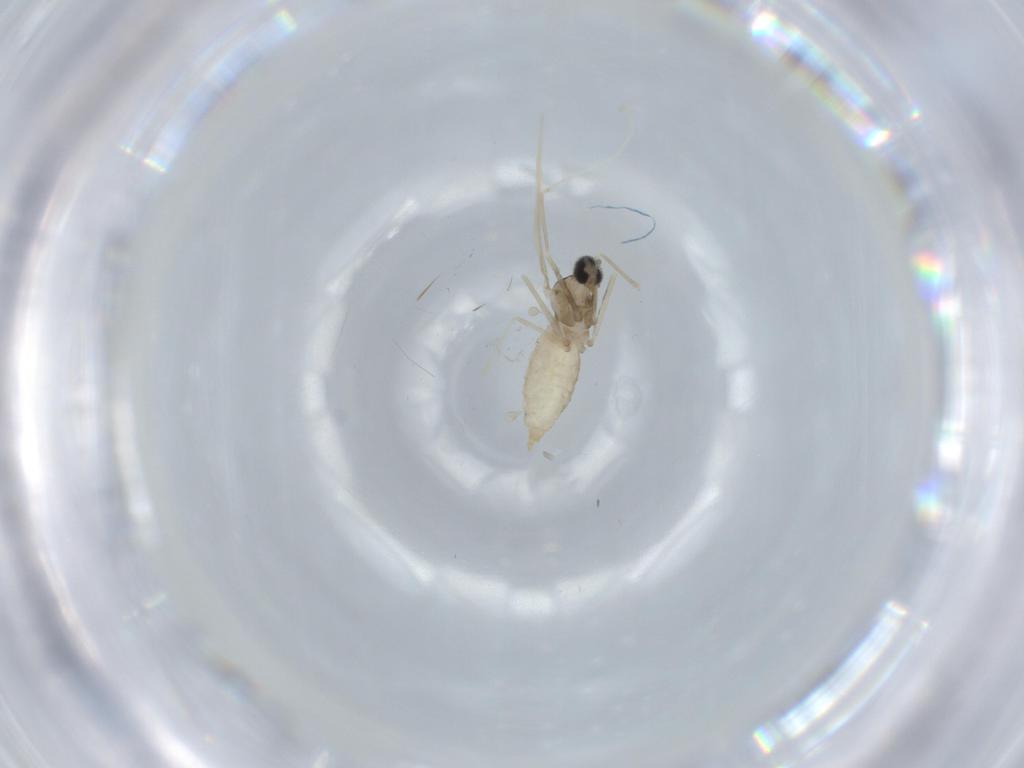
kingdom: Animalia
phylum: Arthropoda
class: Insecta
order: Diptera
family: Cecidomyiidae
